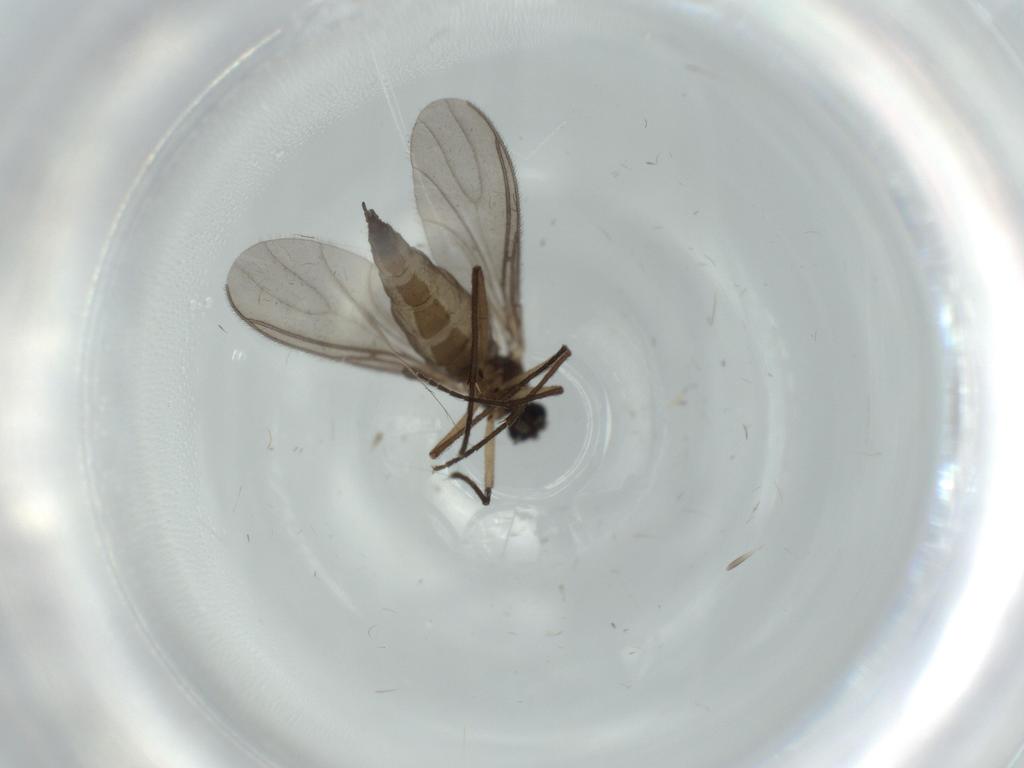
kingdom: Animalia
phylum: Arthropoda
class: Insecta
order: Diptera
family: Sciaridae
